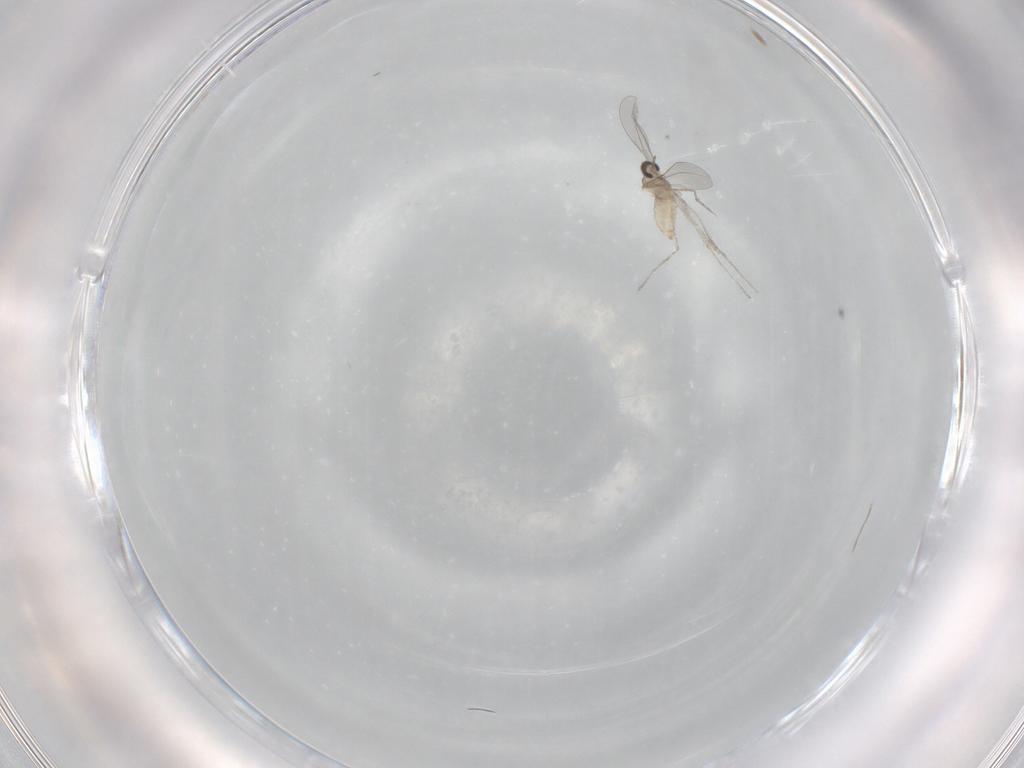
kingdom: Animalia
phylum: Arthropoda
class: Insecta
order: Diptera
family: Cecidomyiidae
